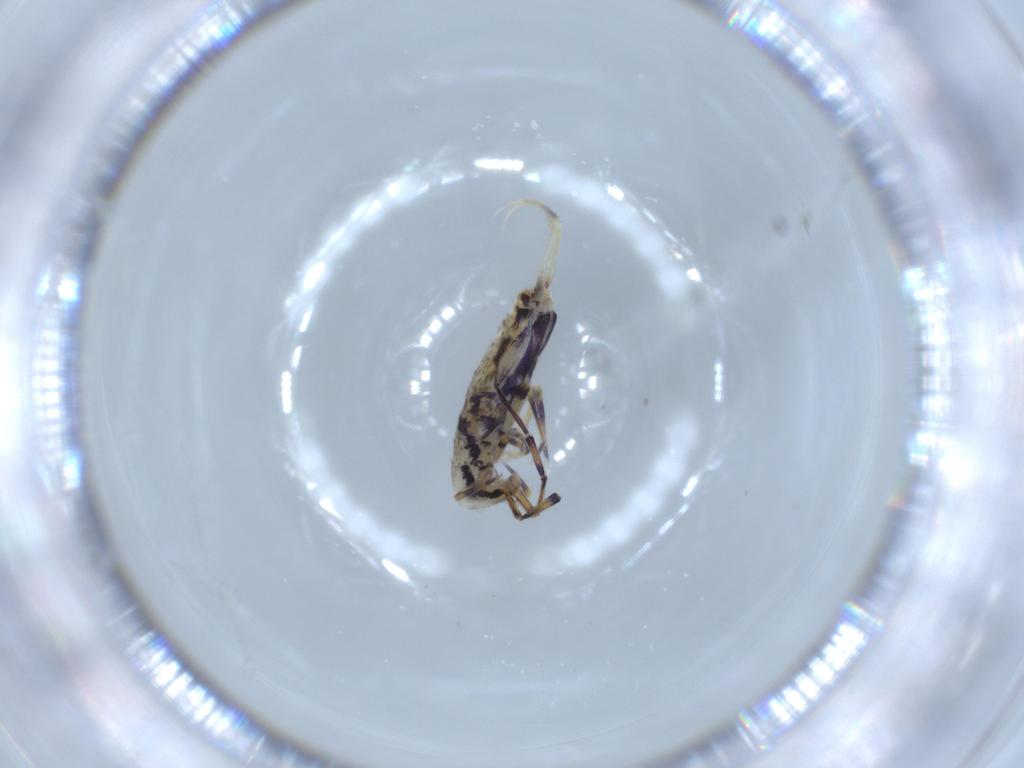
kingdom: Animalia
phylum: Arthropoda
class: Collembola
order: Entomobryomorpha
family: Entomobryidae
